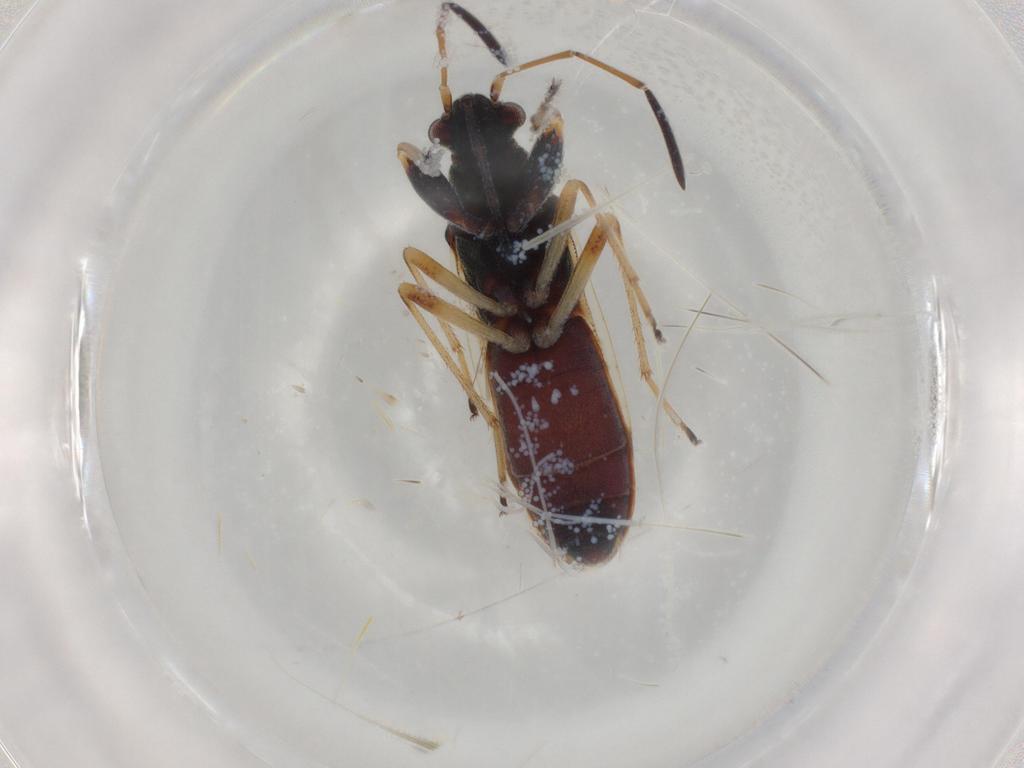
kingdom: Animalia
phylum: Arthropoda
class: Insecta
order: Hemiptera
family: Rhyparochromidae
